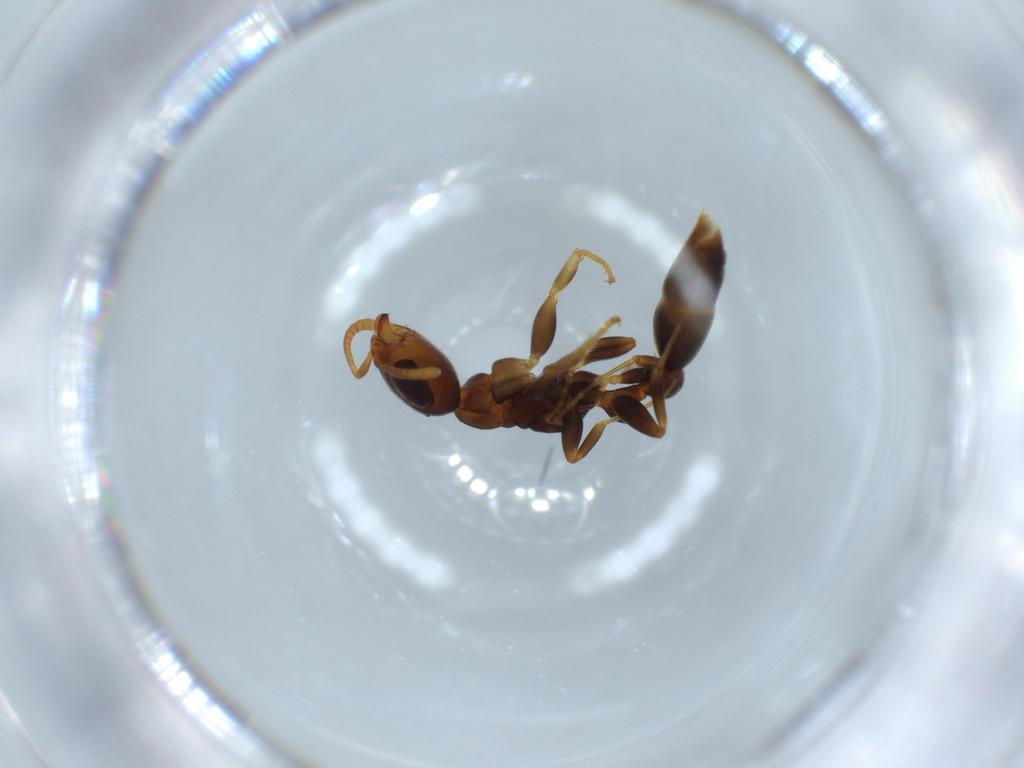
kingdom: Animalia
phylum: Arthropoda
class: Insecta
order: Hymenoptera
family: Formicidae
